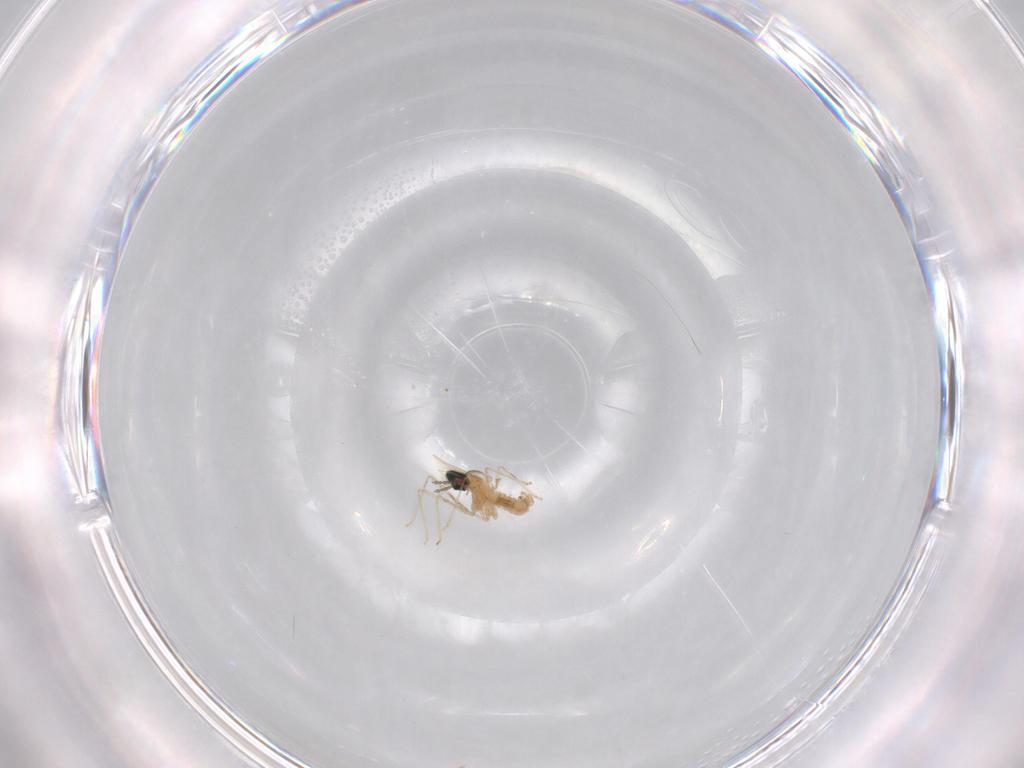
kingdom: Animalia
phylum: Arthropoda
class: Insecta
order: Diptera
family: Cecidomyiidae
